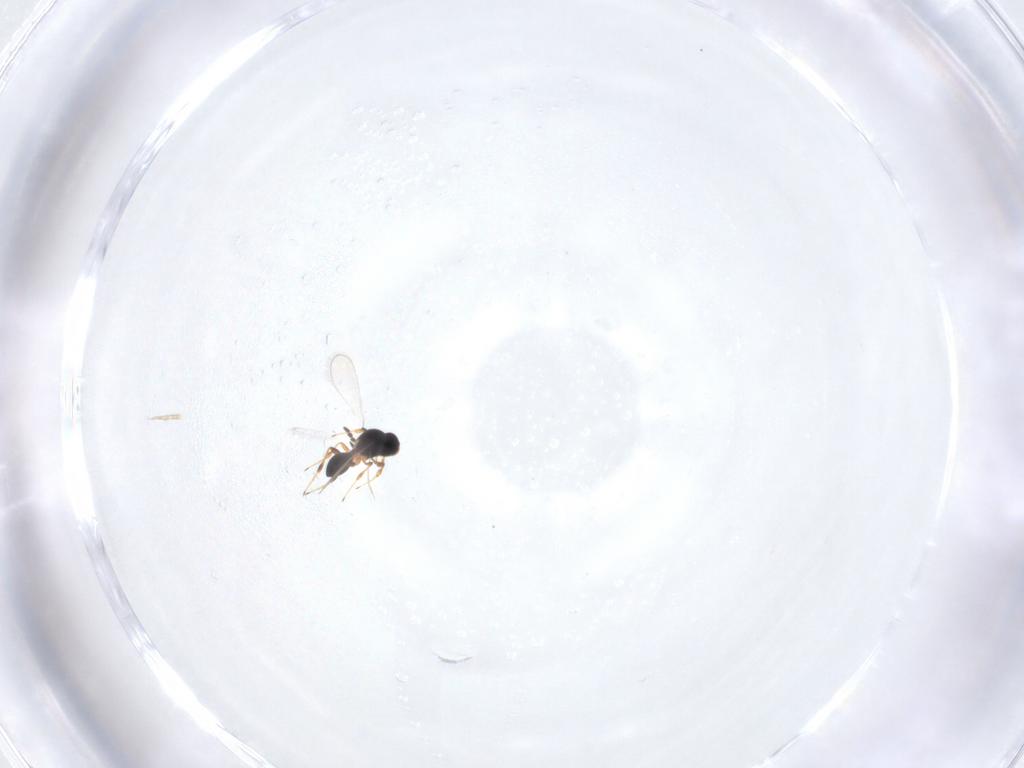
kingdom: Animalia
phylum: Arthropoda
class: Insecta
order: Hymenoptera
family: Platygastridae
